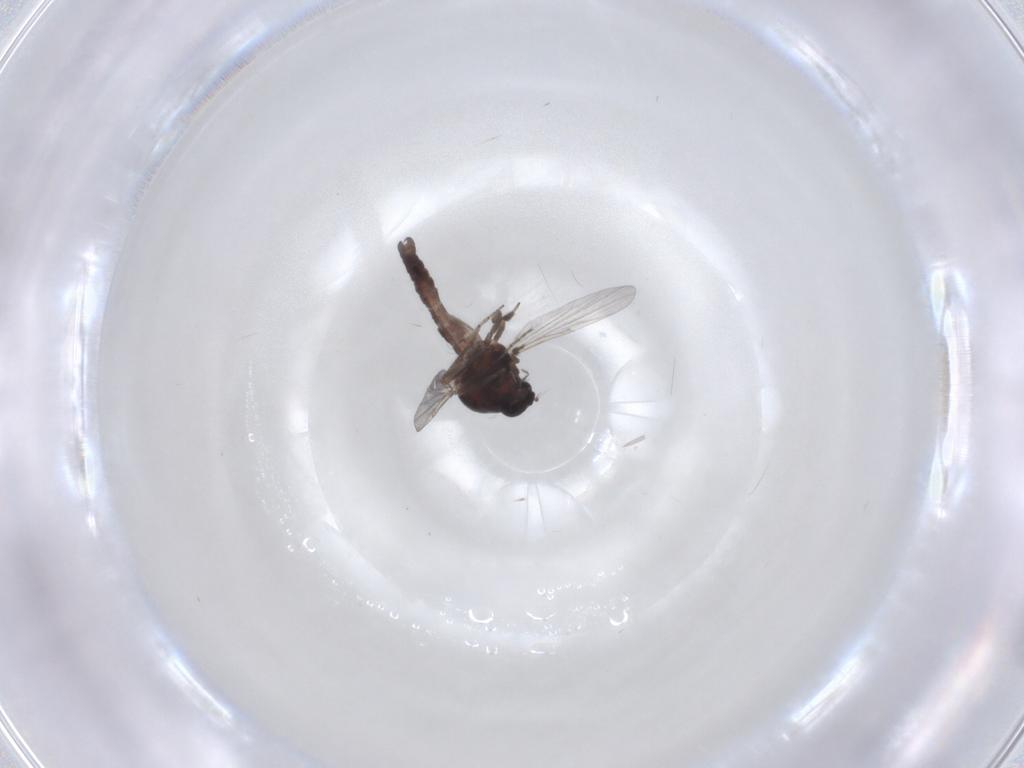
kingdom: Animalia
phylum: Arthropoda
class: Insecta
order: Diptera
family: Ceratopogonidae
